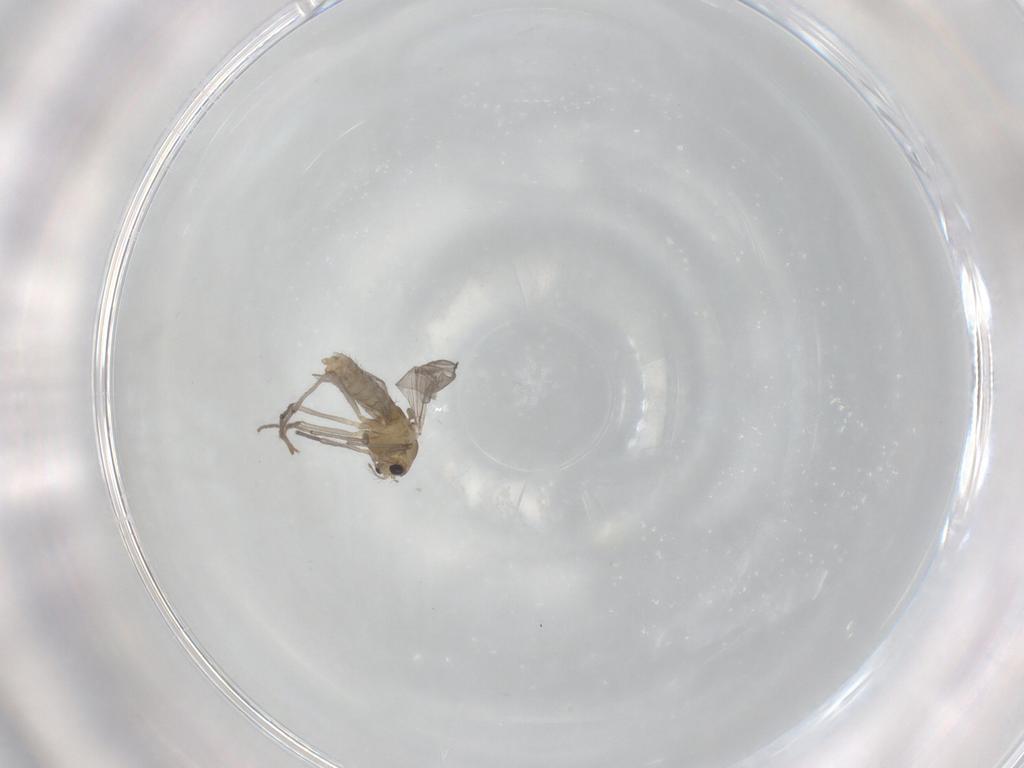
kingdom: Animalia
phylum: Arthropoda
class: Insecta
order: Diptera
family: Chironomidae
